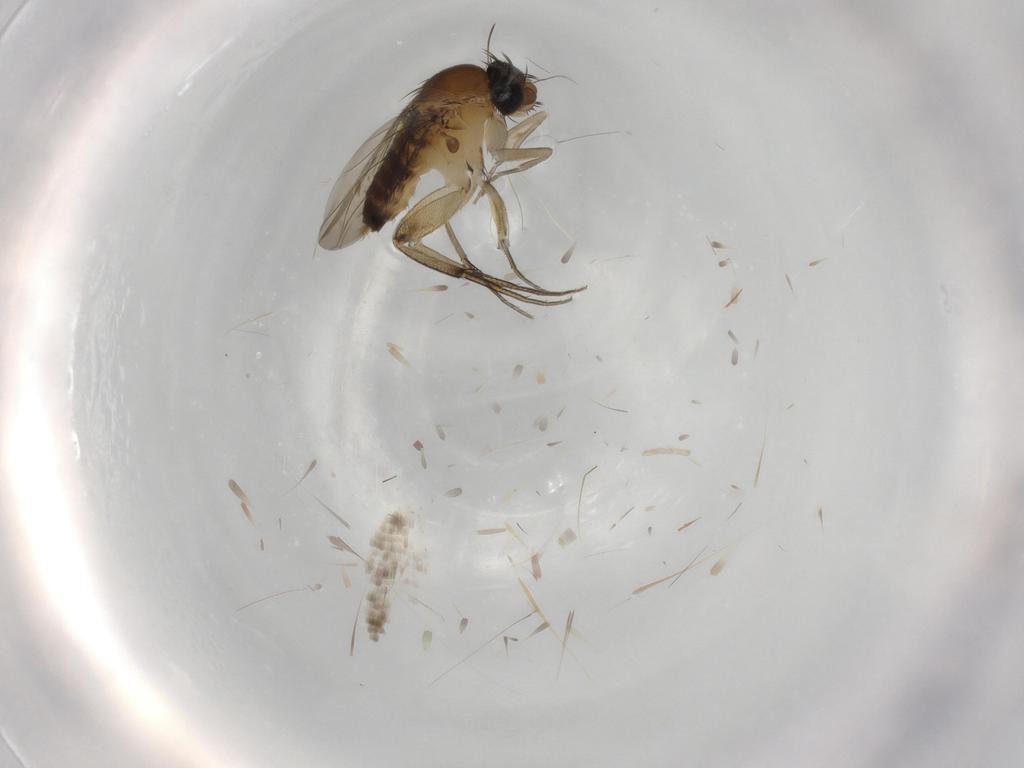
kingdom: Animalia
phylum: Arthropoda
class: Insecta
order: Diptera
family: Phoridae
